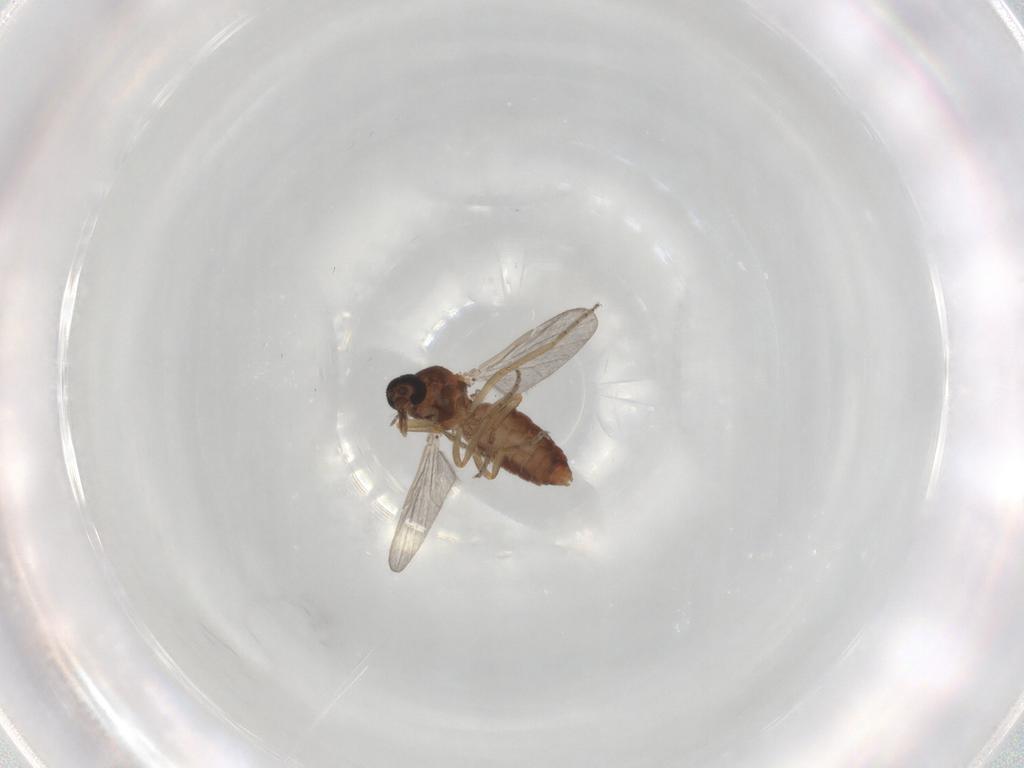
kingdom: Animalia
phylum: Arthropoda
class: Insecta
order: Diptera
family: Ceratopogonidae
